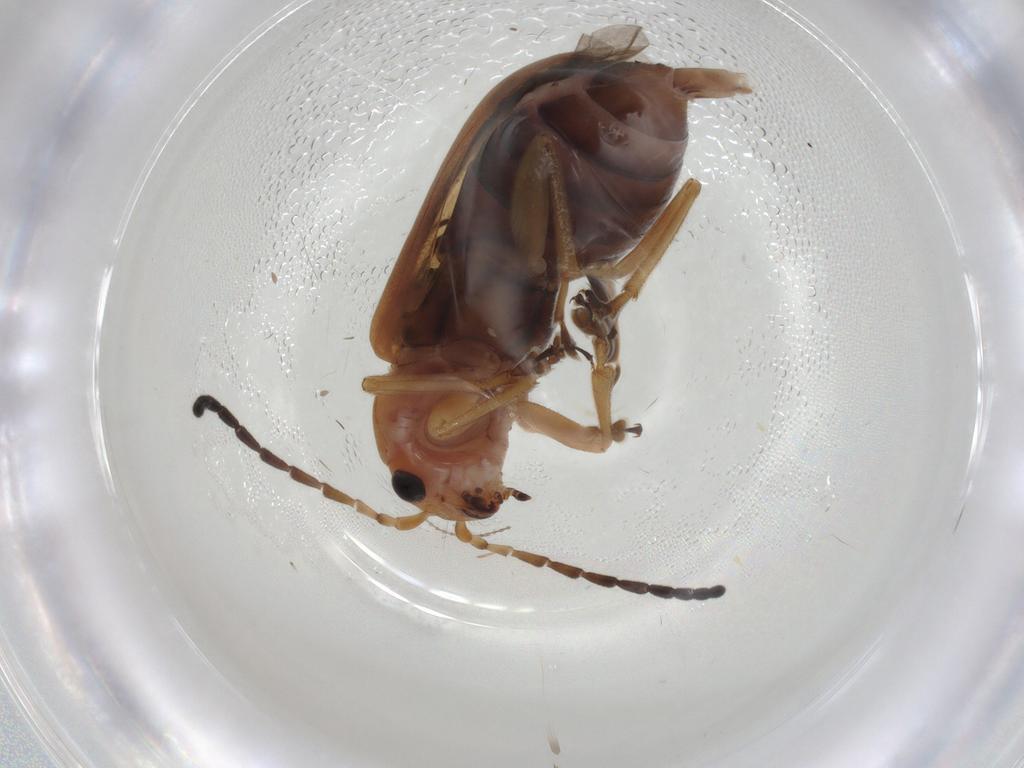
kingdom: Animalia
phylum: Arthropoda
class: Insecta
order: Coleoptera
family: Chrysomelidae
